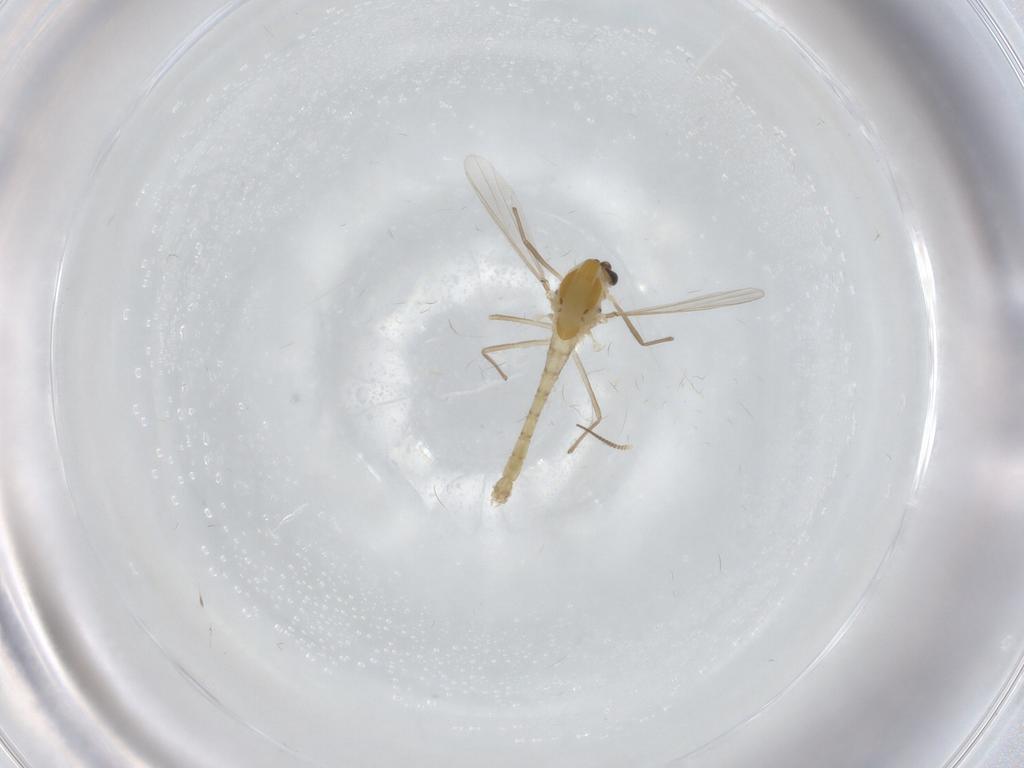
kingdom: Animalia
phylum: Arthropoda
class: Insecta
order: Diptera
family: Chironomidae
